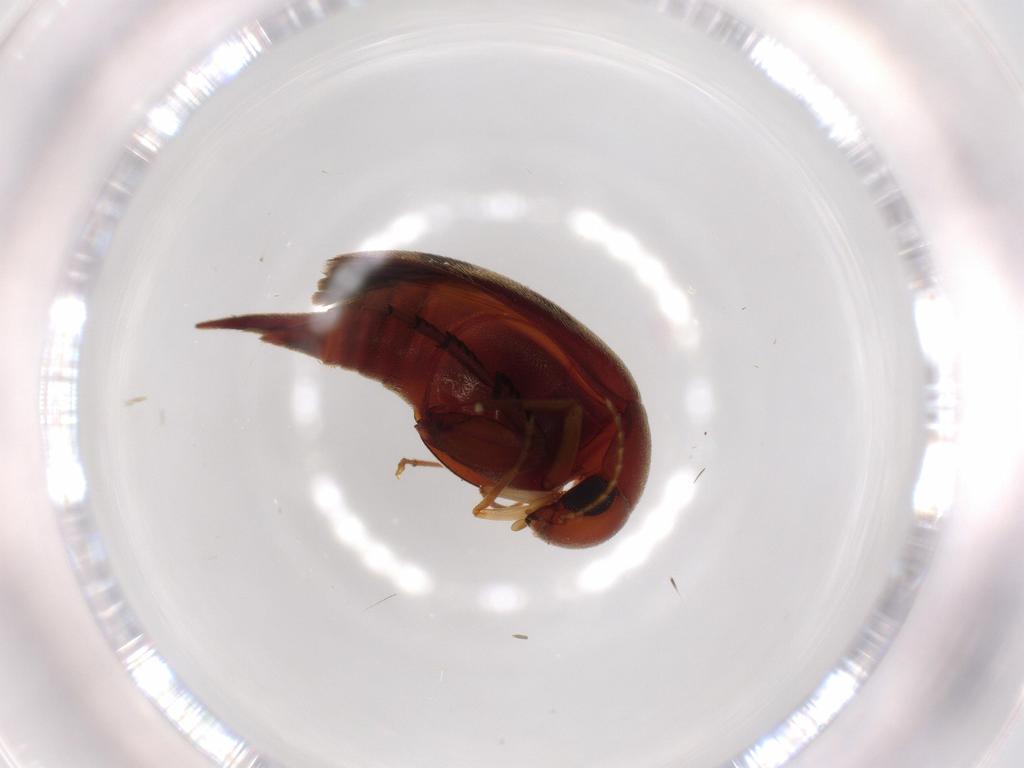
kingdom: Animalia
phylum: Arthropoda
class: Insecta
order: Coleoptera
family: Mordellidae
